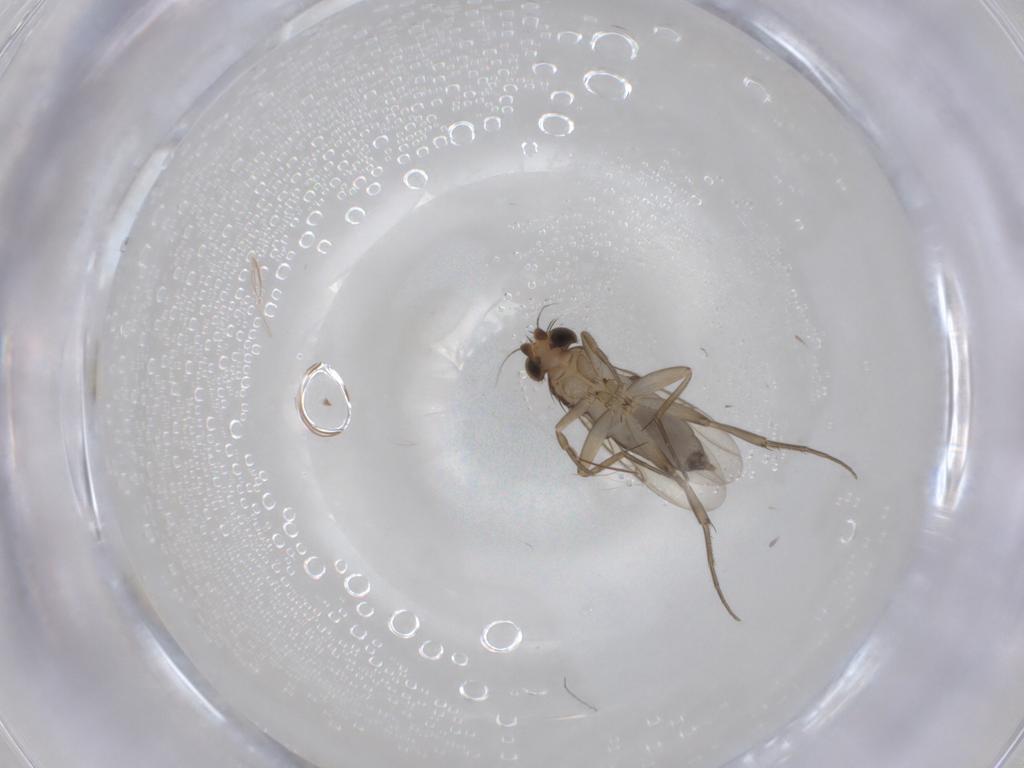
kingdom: Animalia
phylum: Arthropoda
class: Insecta
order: Diptera
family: Phoridae
